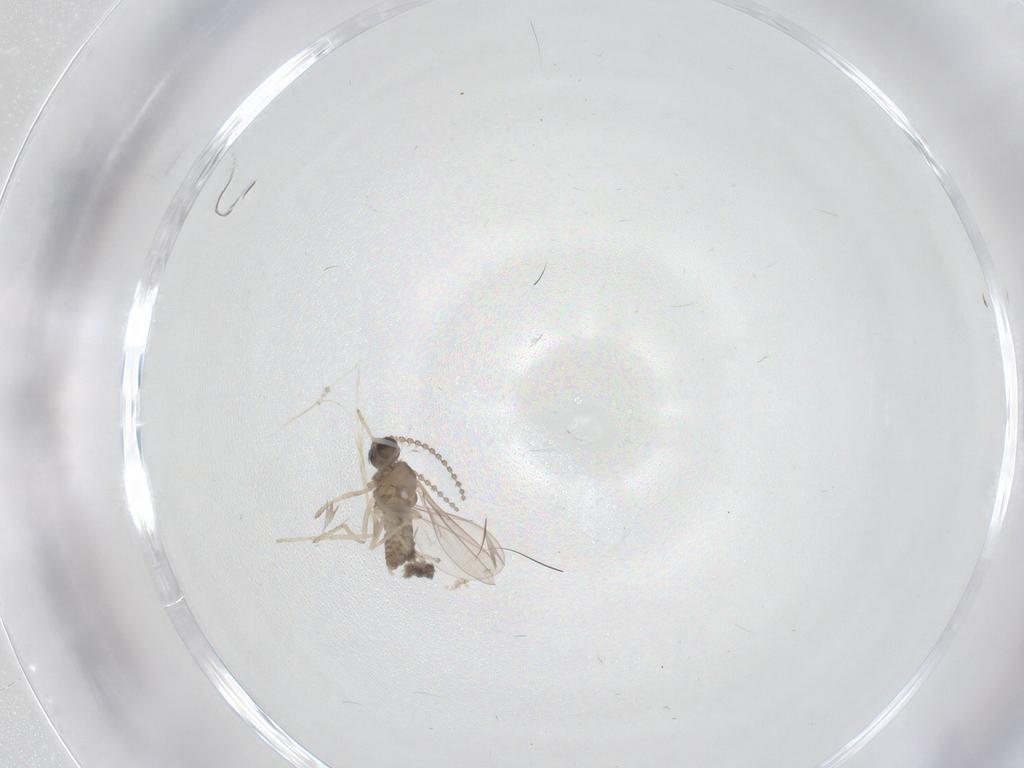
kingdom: Animalia
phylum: Arthropoda
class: Insecta
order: Diptera
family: Cecidomyiidae
